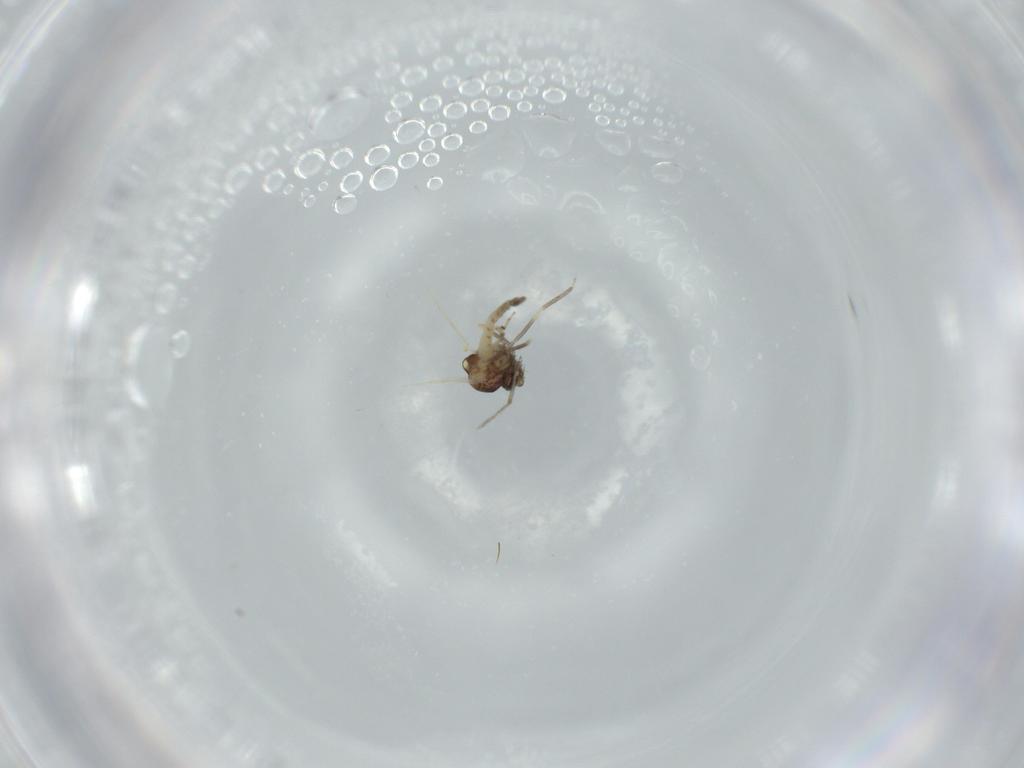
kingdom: Animalia
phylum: Arthropoda
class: Insecta
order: Diptera
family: Ceratopogonidae
